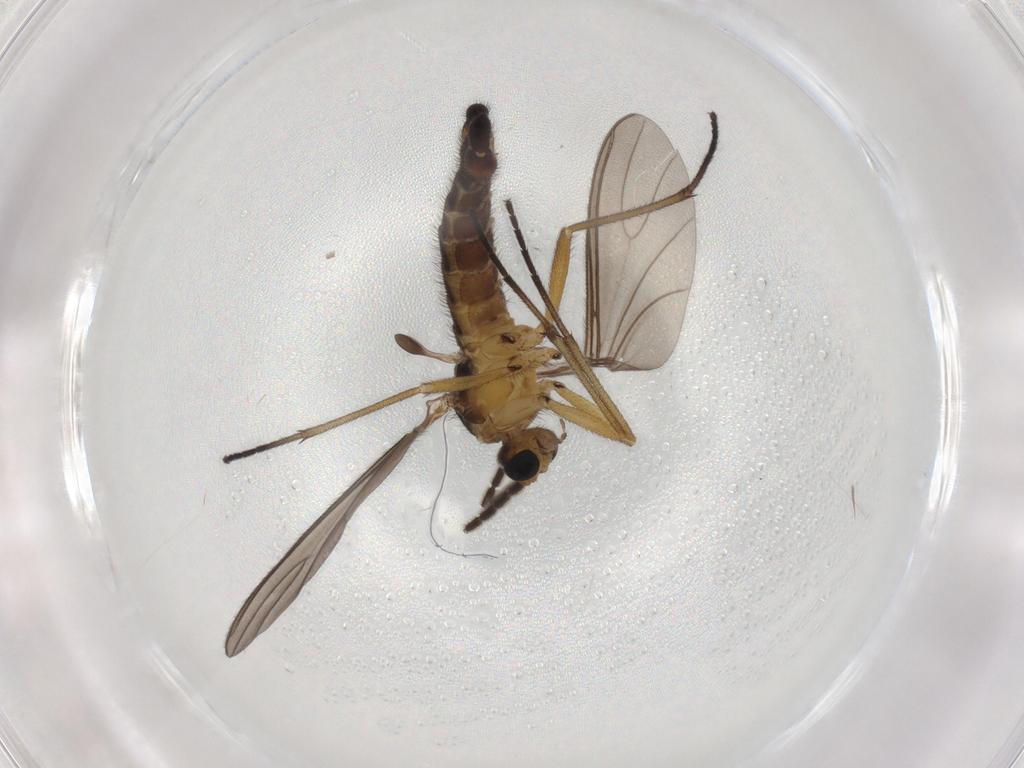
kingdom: Animalia
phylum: Arthropoda
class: Insecta
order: Diptera
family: Sciaridae
